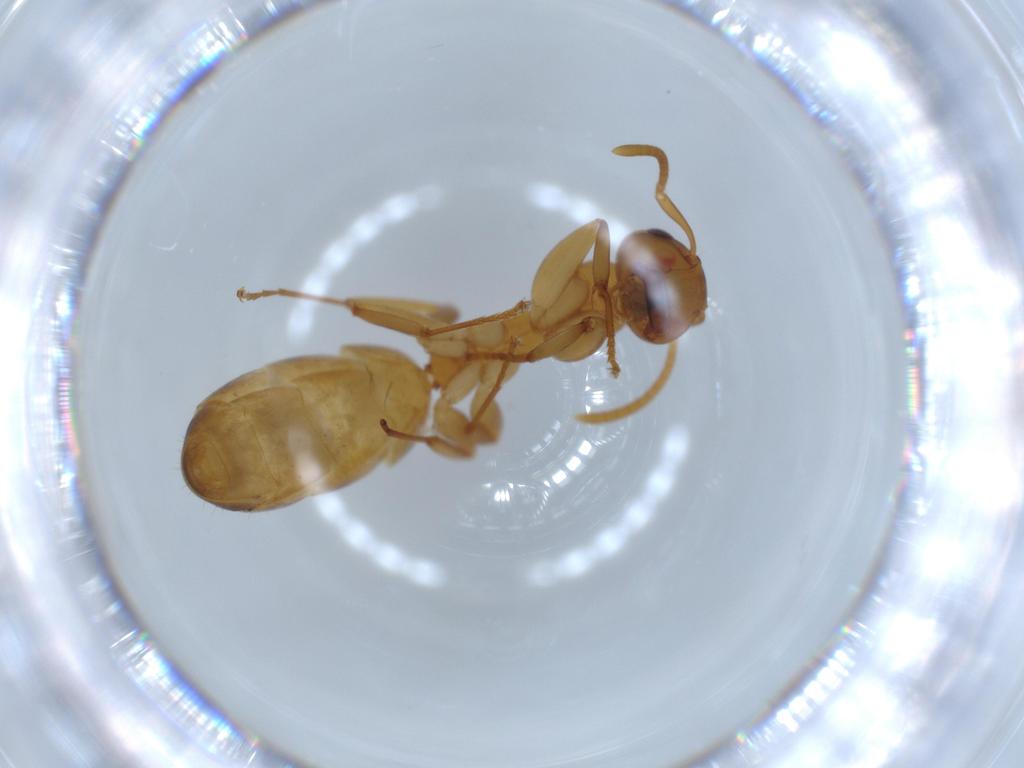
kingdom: Animalia
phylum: Arthropoda
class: Insecta
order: Hymenoptera
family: Formicidae
